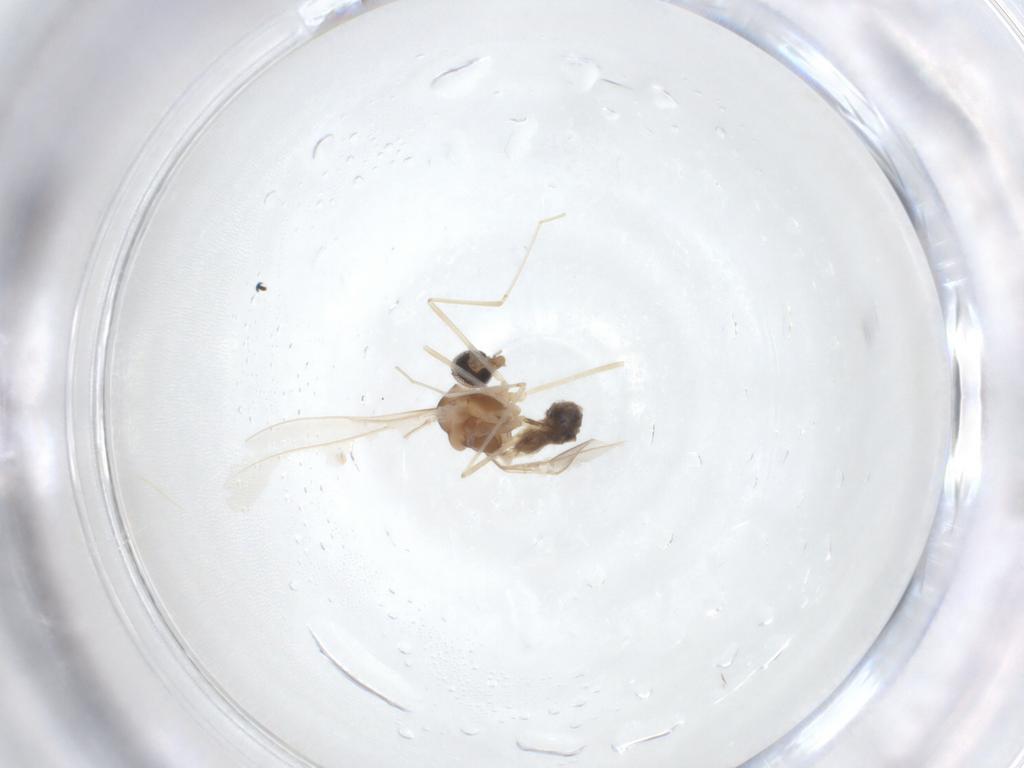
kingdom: Animalia
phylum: Arthropoda
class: Insecta
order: Diptera
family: Cecidomyiidae
